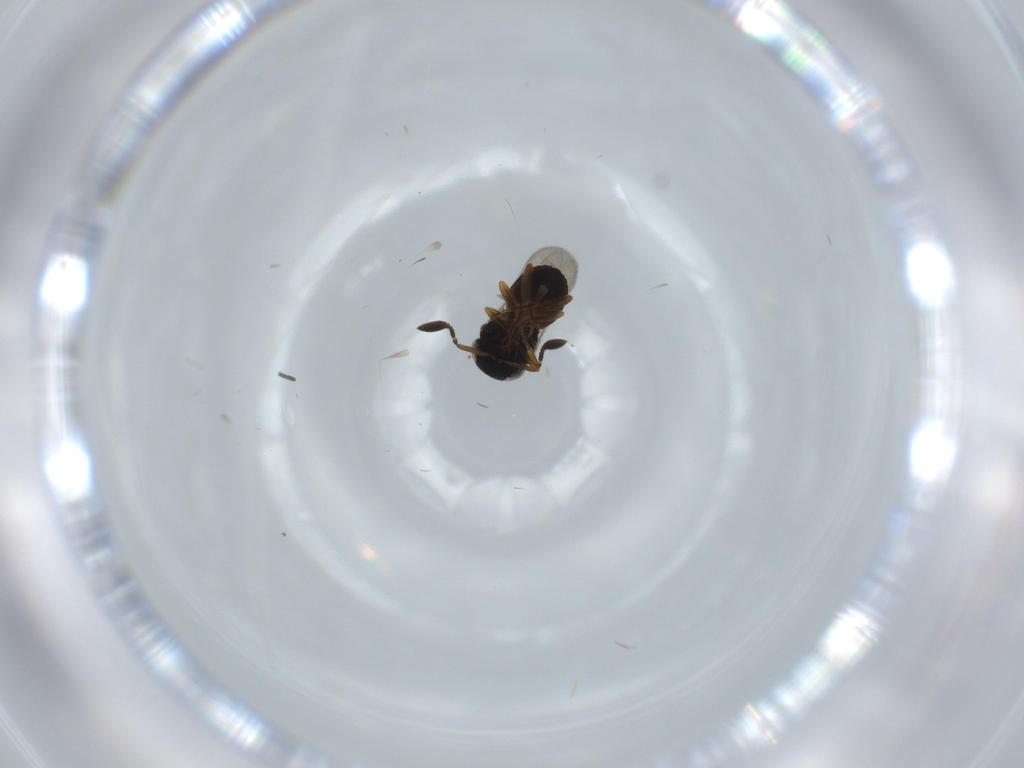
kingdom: Animalia
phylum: Arthropoda
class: Insecta
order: Coleoptera
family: Curculionidae
